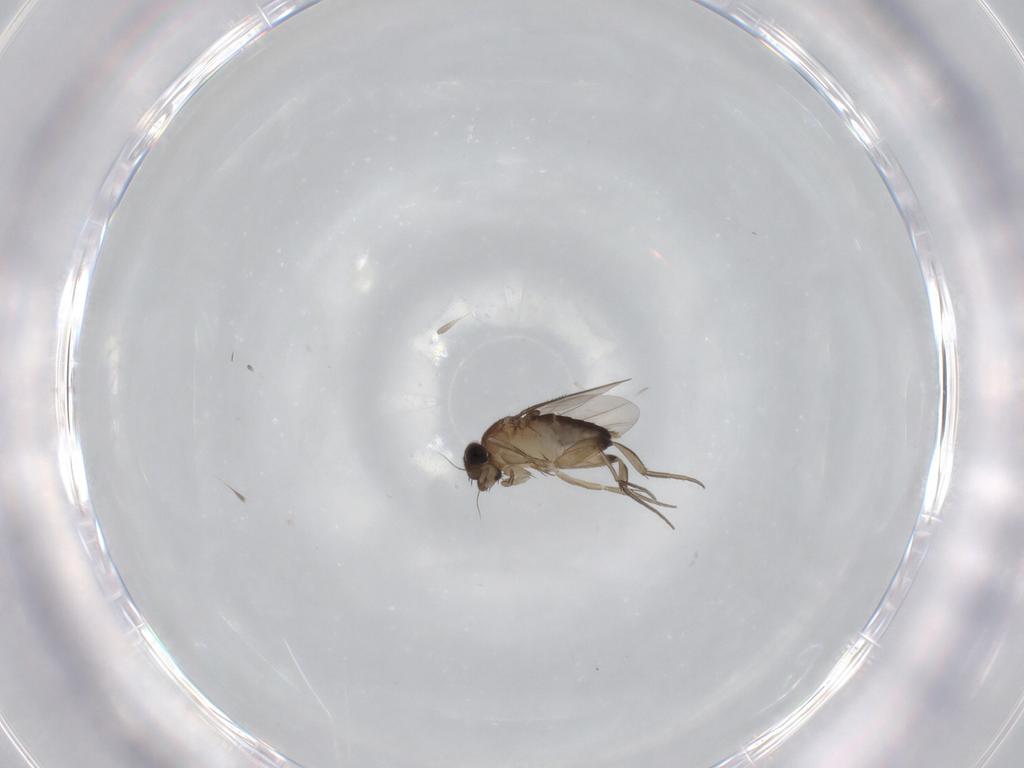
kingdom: Animalia
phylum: Arthropoda
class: Insecta
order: Diptera
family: Phoridae
